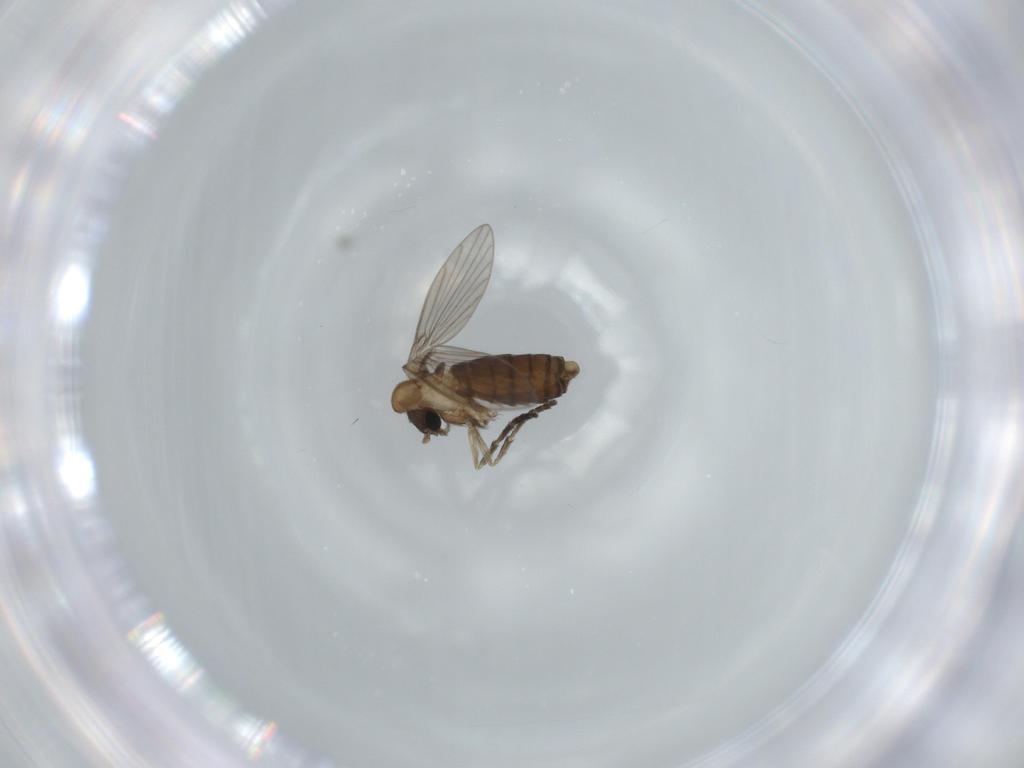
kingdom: Animalia
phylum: Arthropoda
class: Insecta
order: Diptera
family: Psychodidae
